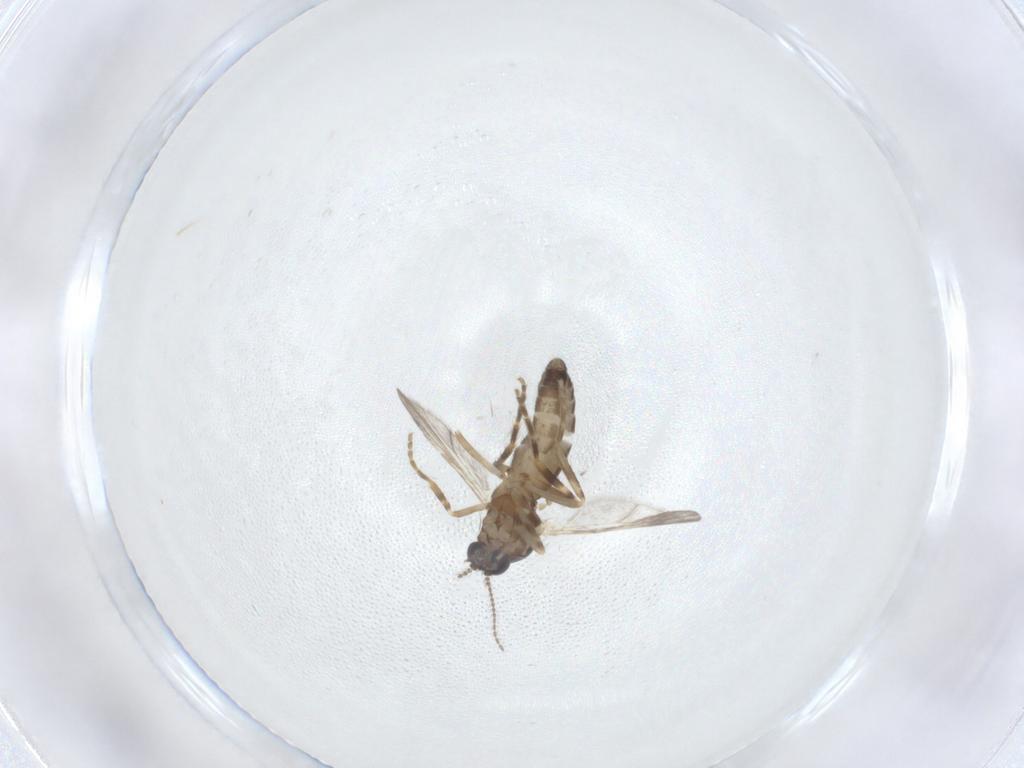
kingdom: Animalia
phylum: Arthropoda
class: Insecta
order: Diptera
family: Ceratopogonidae
